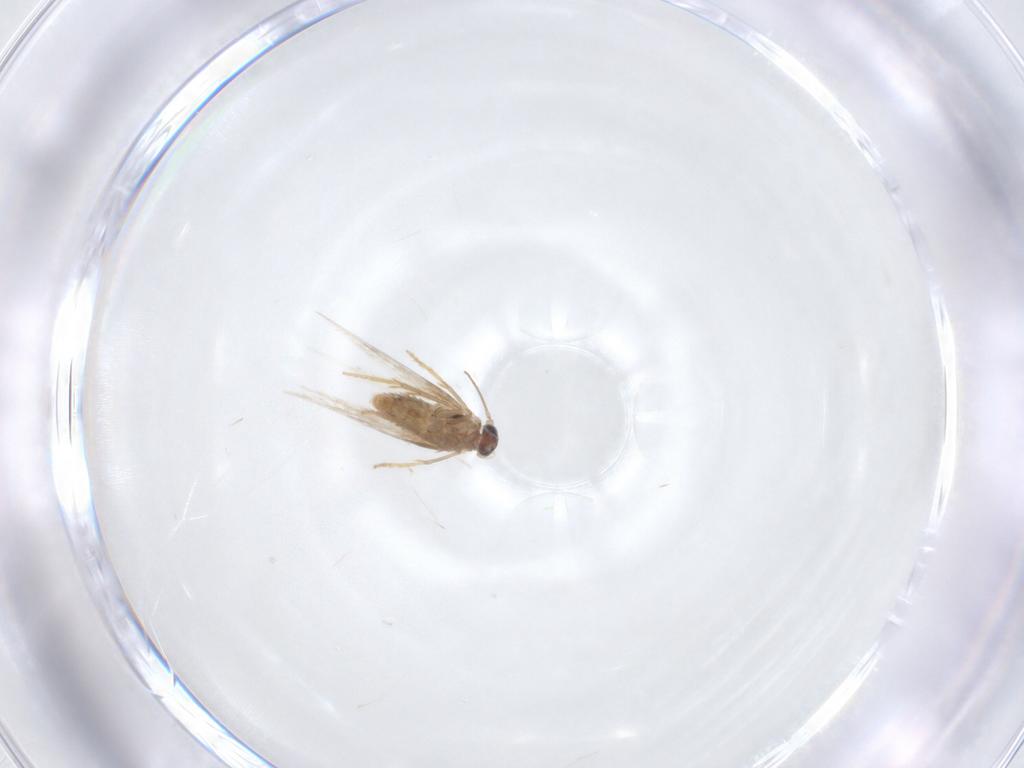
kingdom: Animalia
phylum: Arthropoda
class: Insecta
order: Lepidoptera
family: Nepticulidae
